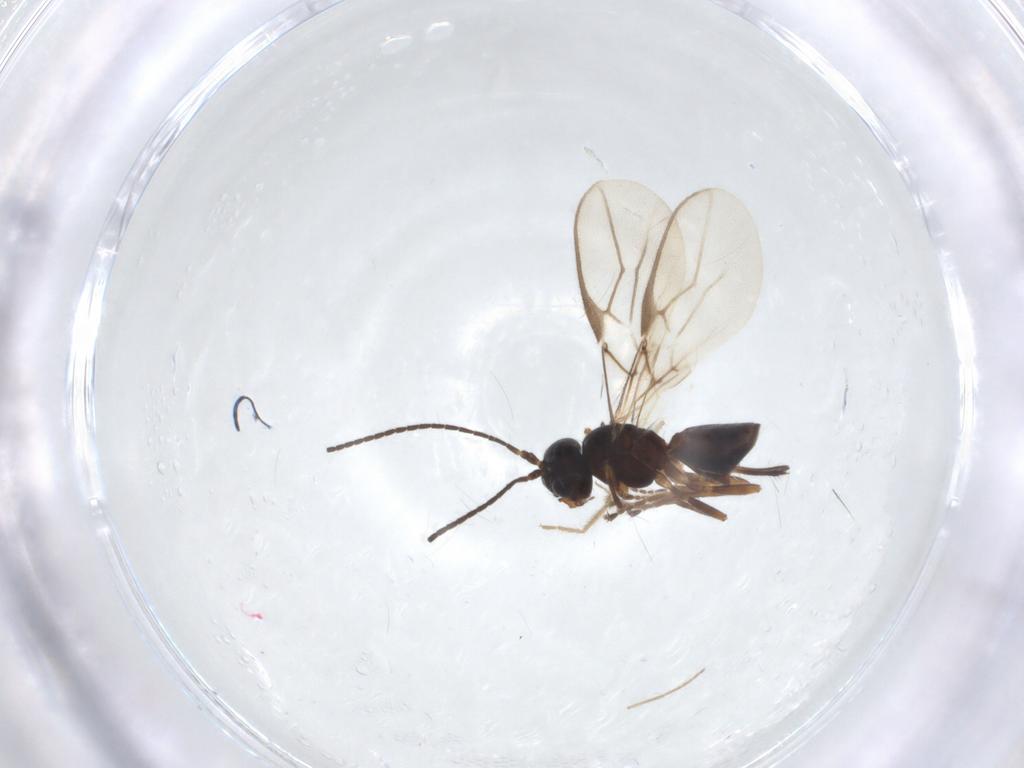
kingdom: Animalia
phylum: Arthropoda
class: Insecta
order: Hymenoptera
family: Braconidae
